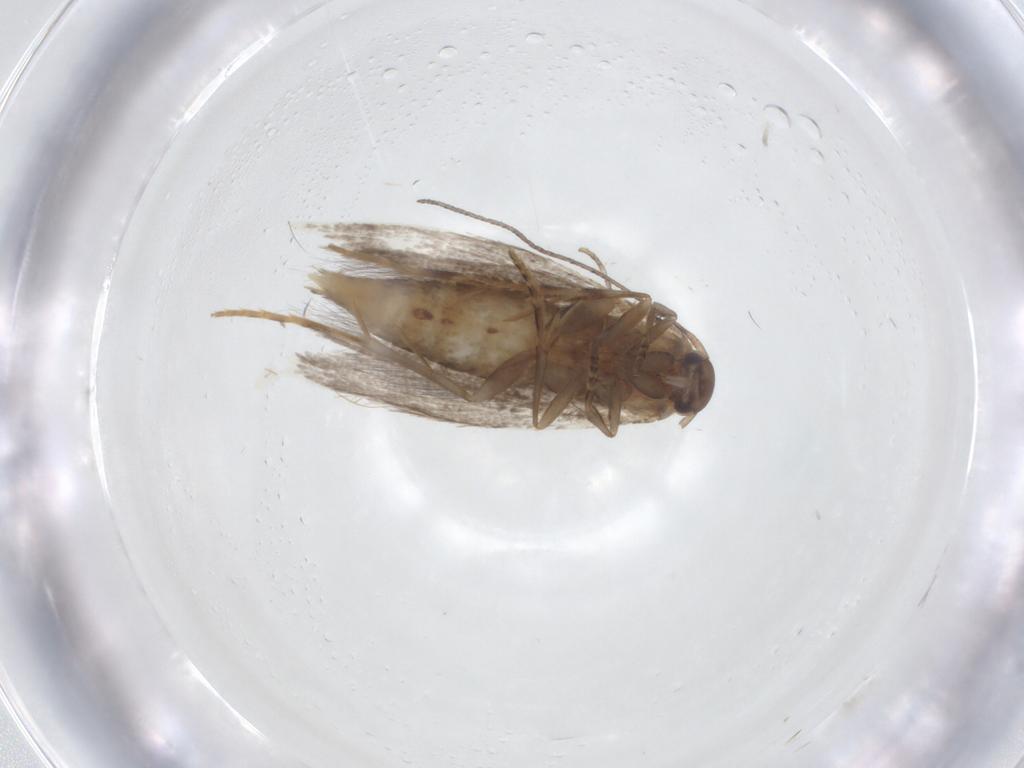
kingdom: Animalia
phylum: Arthropoda
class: Insecta
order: Lepidoptera
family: Elachistidae
